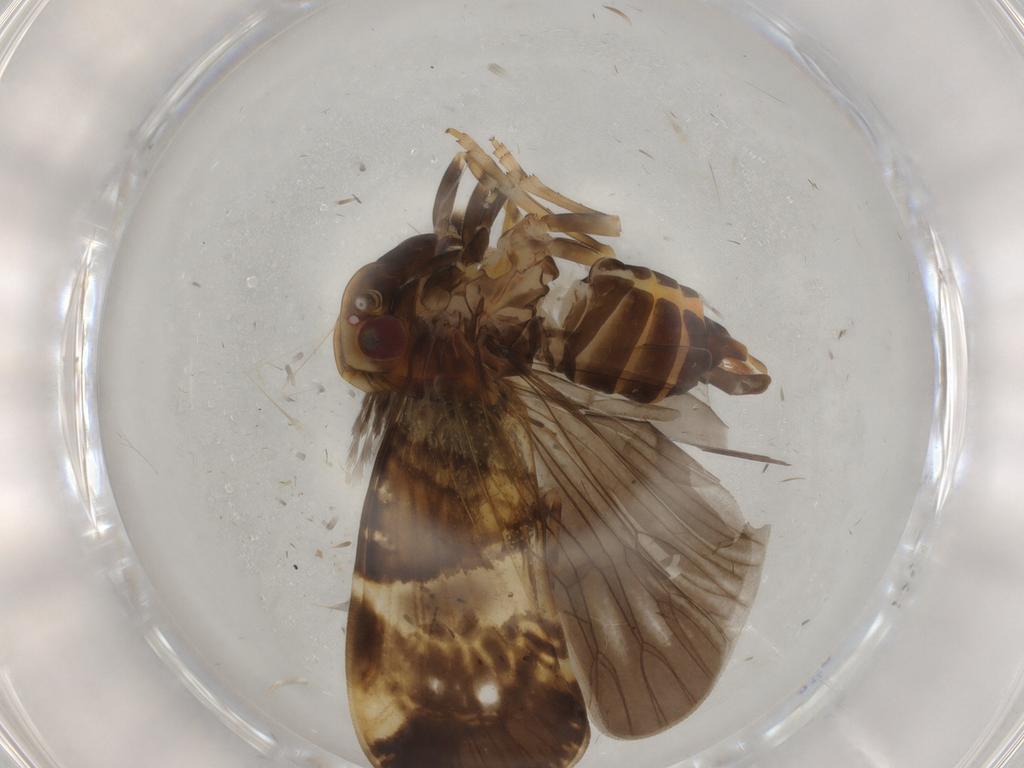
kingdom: Animalia
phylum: Arthropoda
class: Insecta
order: Hemiptera
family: Cixiidae
